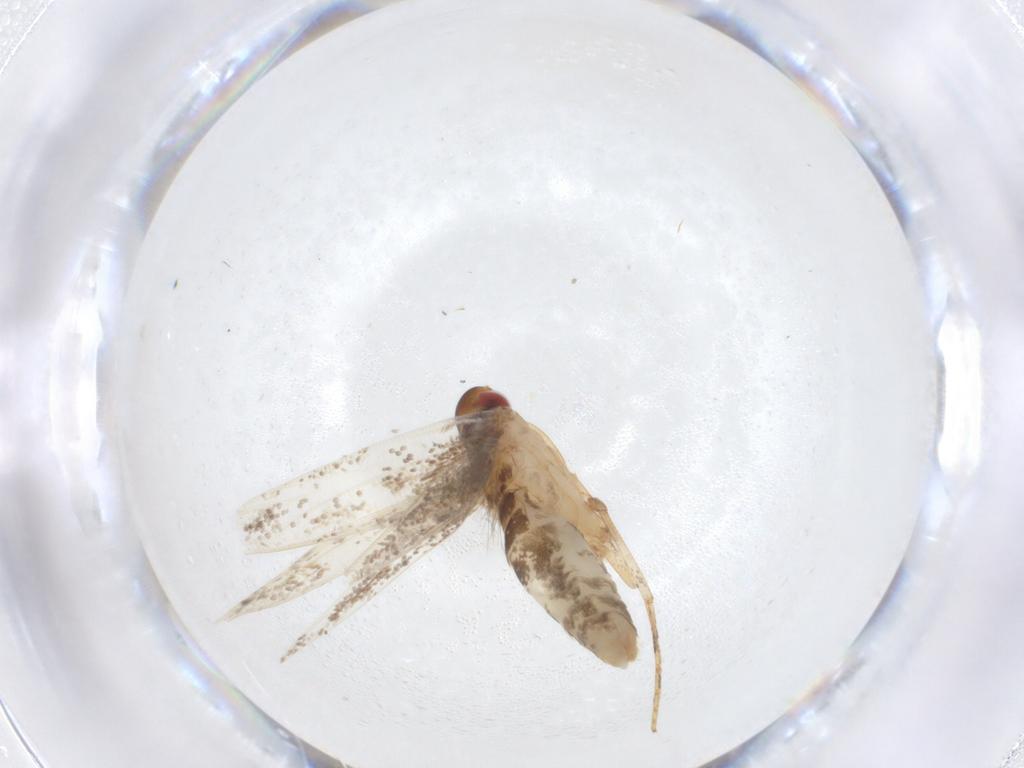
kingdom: Animalia
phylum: Arthropoda
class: Insecta
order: Lepidoptera
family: Cosmopterigidae
